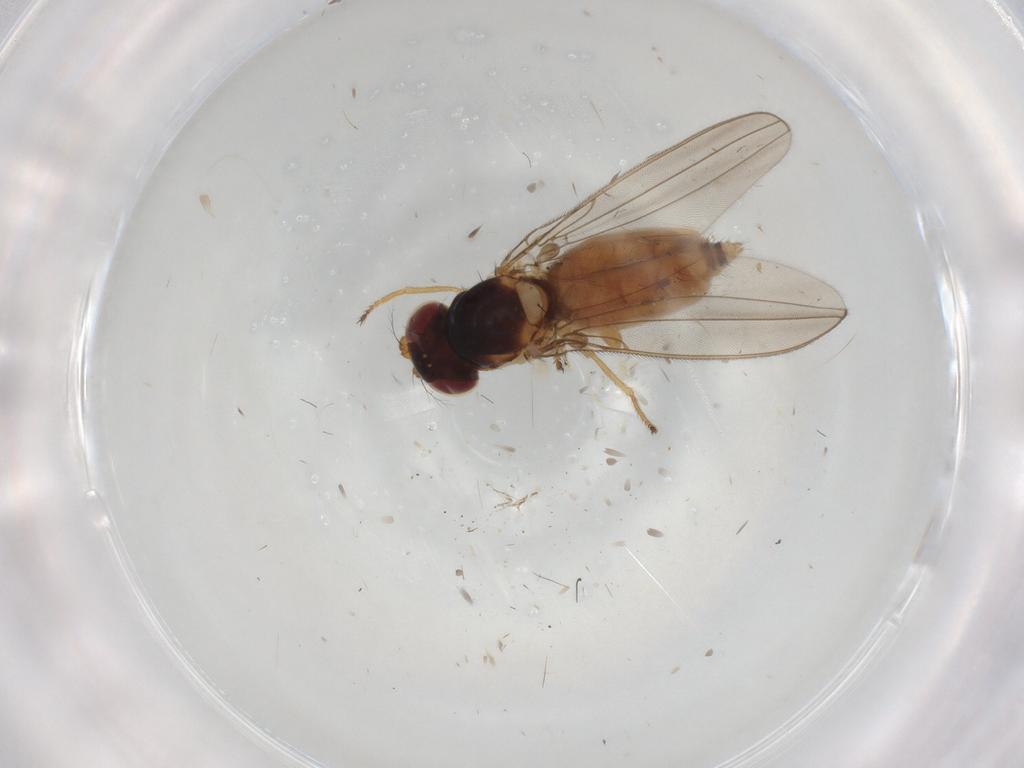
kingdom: Animalia
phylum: Arthropoda
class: Insecta
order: Diptera
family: Asteiidae
